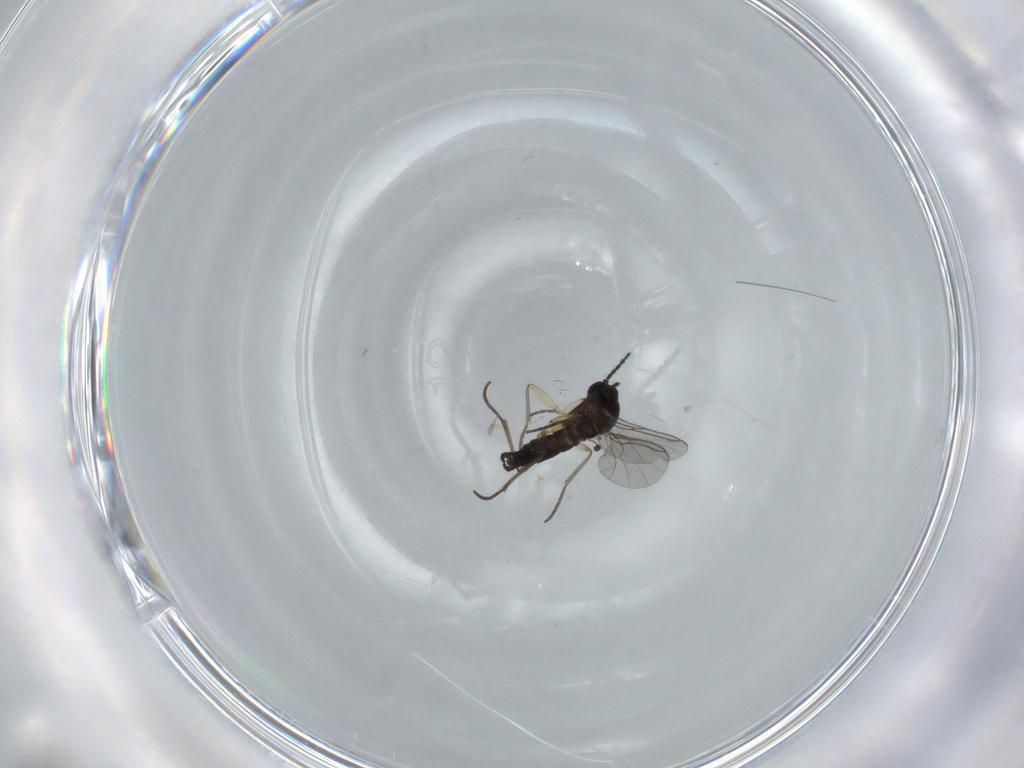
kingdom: Animalia
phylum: Arthropoda
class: Insecta
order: Diptera
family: Sciaridae
